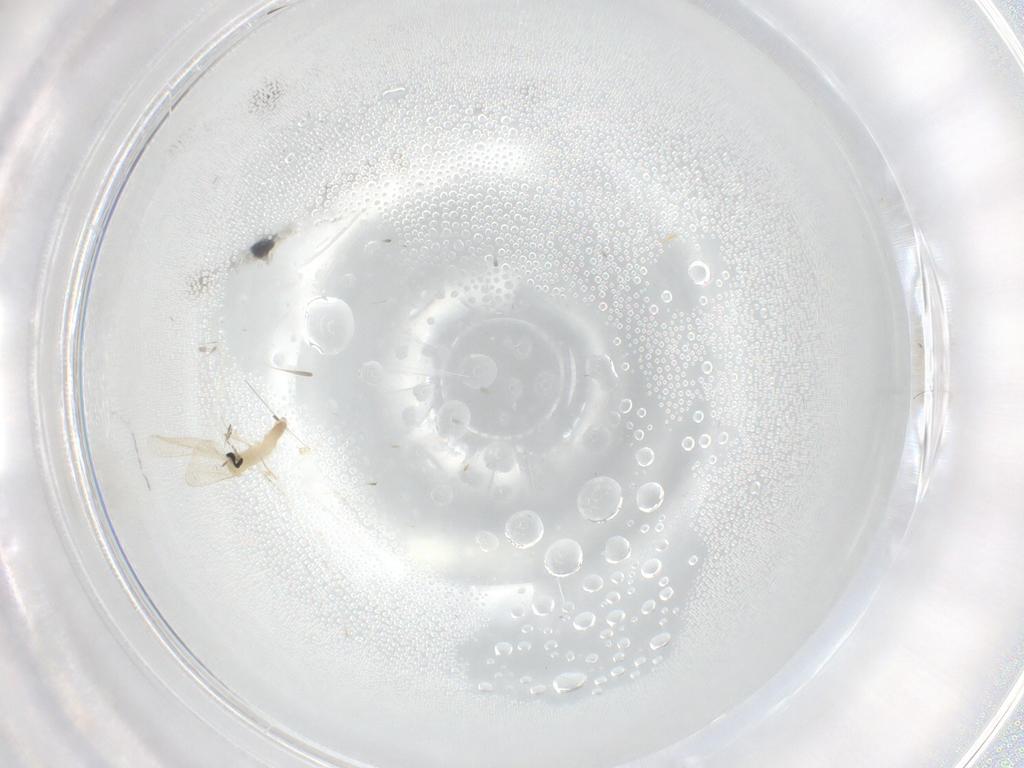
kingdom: Animalia
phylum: Arthropoda
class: Insecta
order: Diptera
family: Cecidomyiidae
